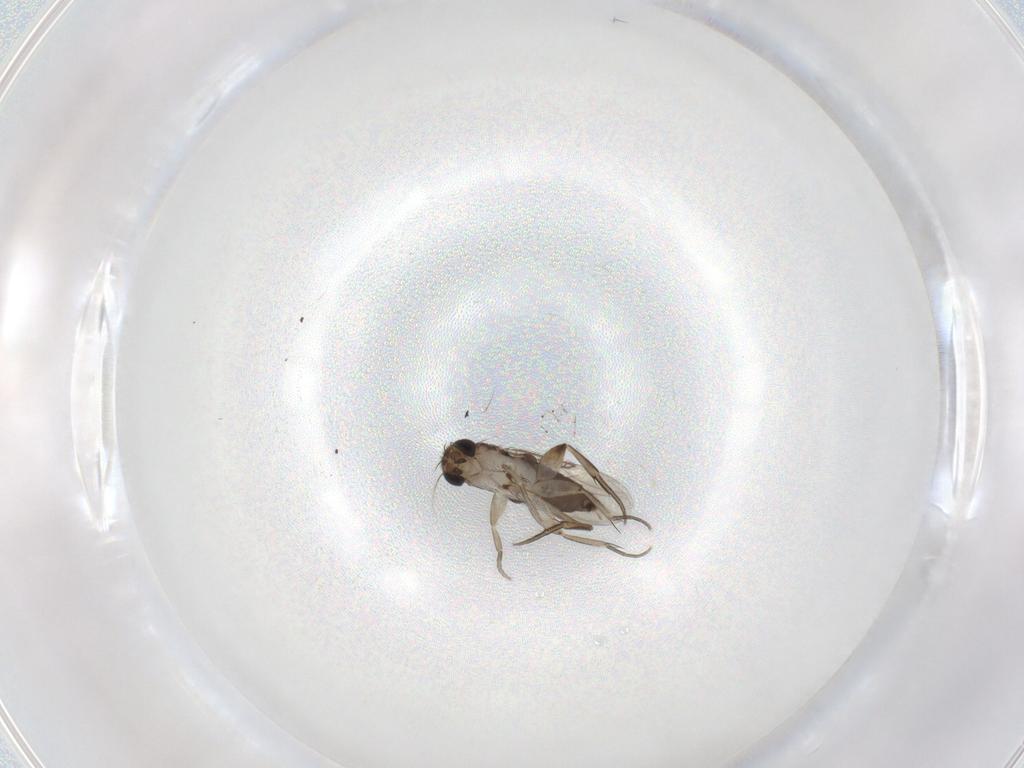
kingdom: Animalia
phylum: Arthropoda
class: Insecta
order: Diptera
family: Phoridae
